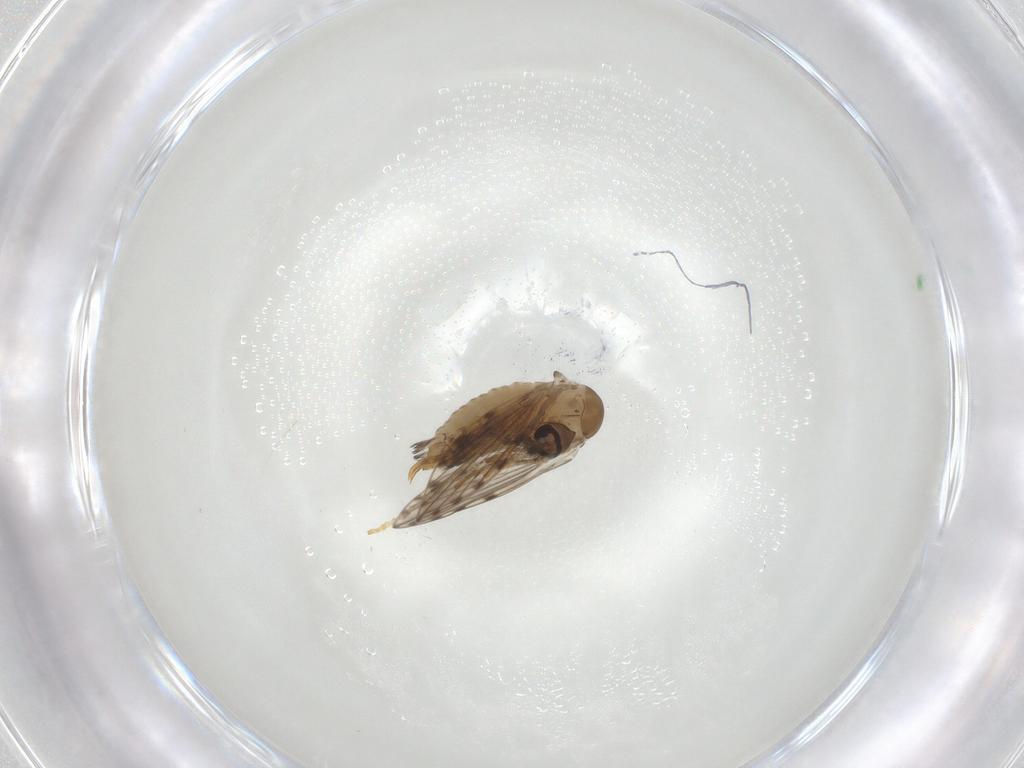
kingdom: Animalia
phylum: Arthropoda
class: Insecta
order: Diptera
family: Psychodidae
